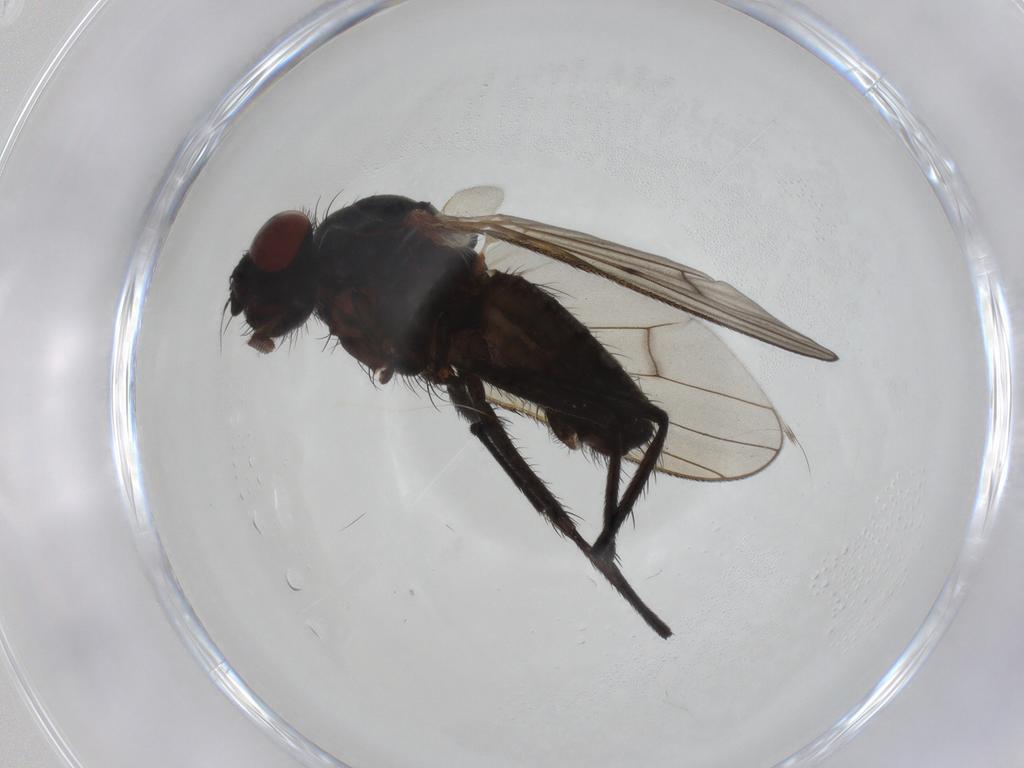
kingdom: Animalia
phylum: Arthropoda
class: Insecta
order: Diptera
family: Anthomyiidae
